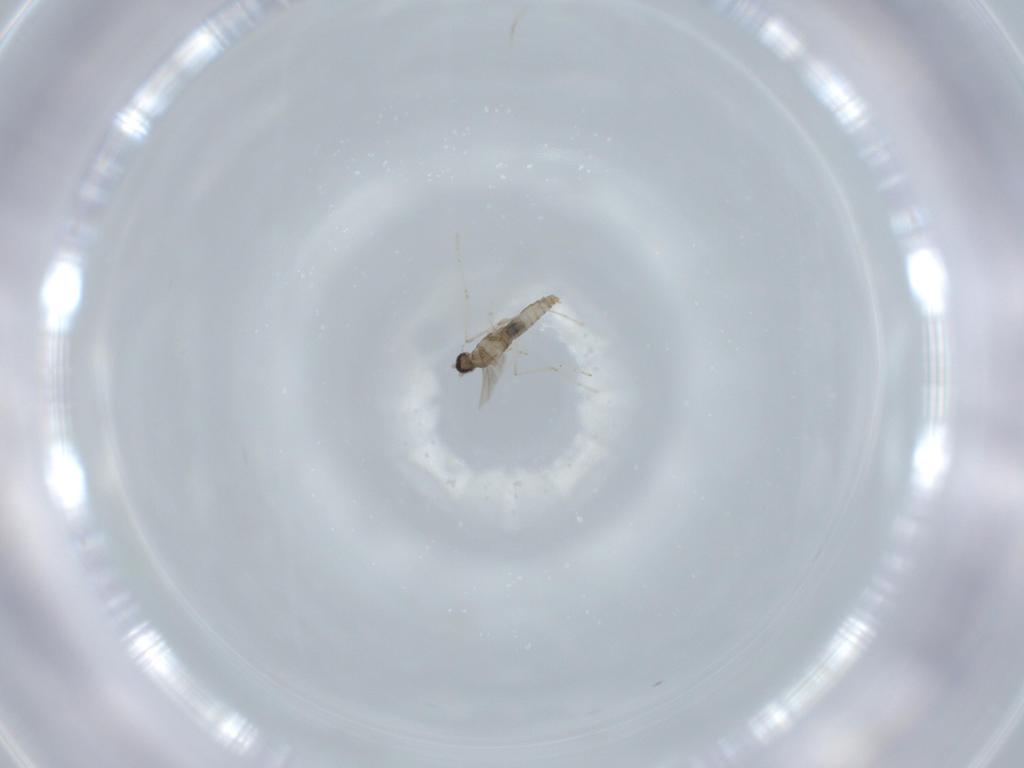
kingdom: Animalia
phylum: Arthropoda
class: Insecta
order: Diptera
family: Cecidomyiidae
